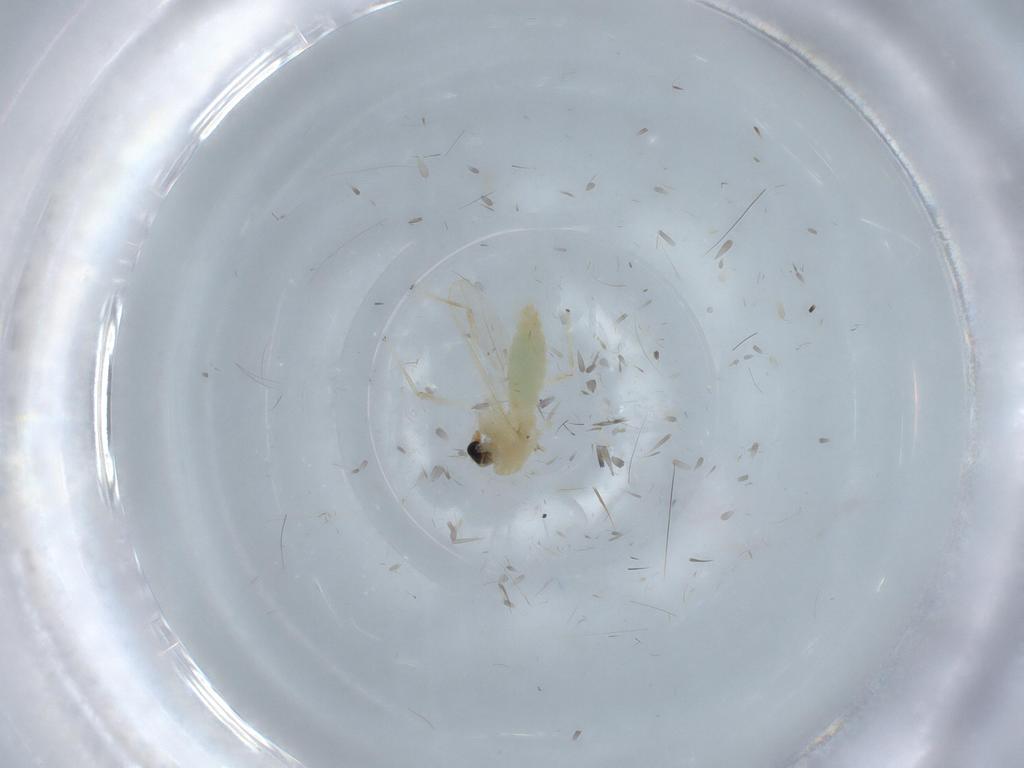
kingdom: Animalia
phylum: Arthropoda
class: Insecta
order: Diptera
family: Chironomidae
